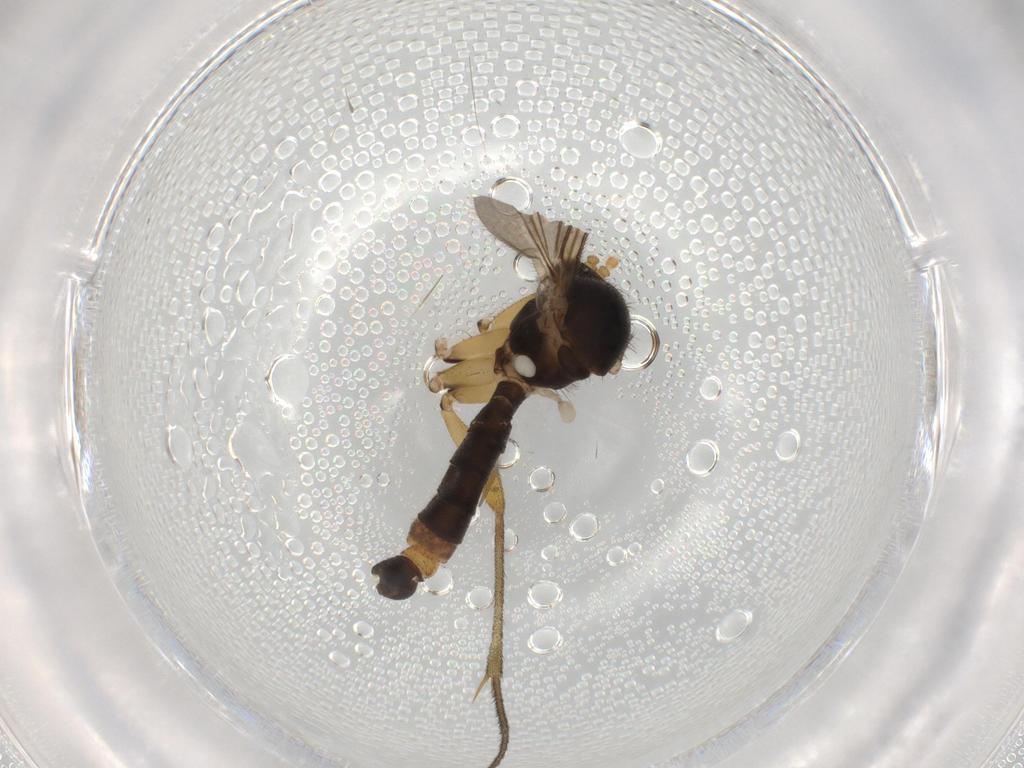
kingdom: Animalia
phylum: Arthropoda
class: Insecta
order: Diptera
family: Mycetophilidae
